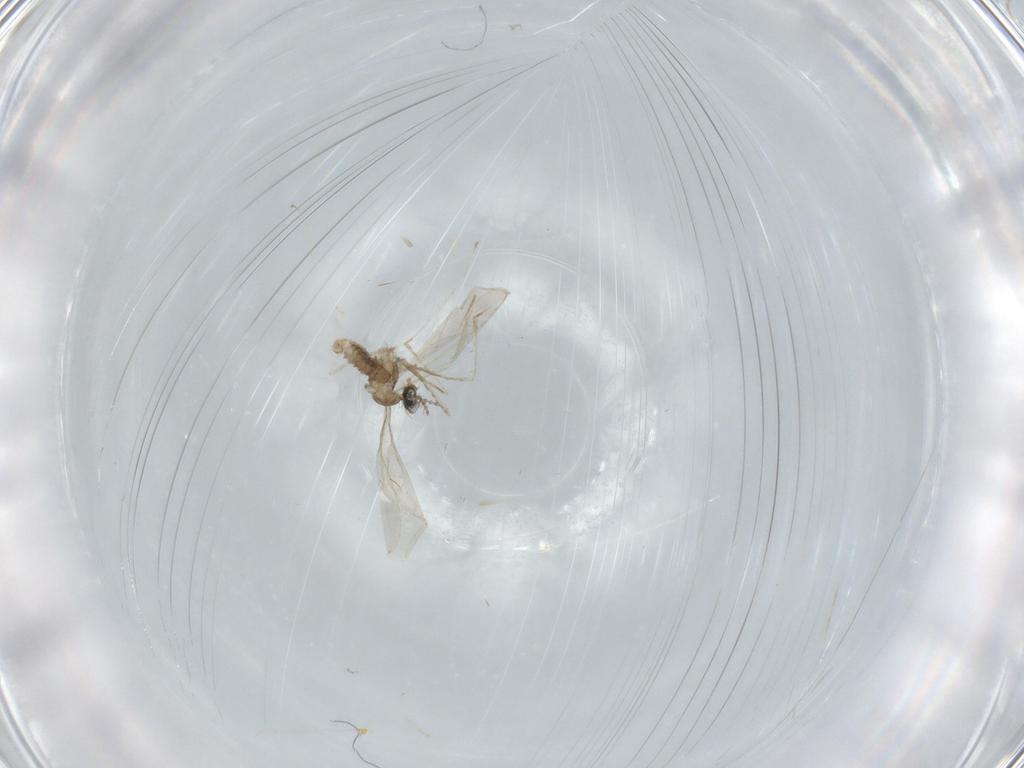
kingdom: Animalia
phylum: Arthropoda
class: Insecta
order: Diptera
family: Cecidomyiidae
